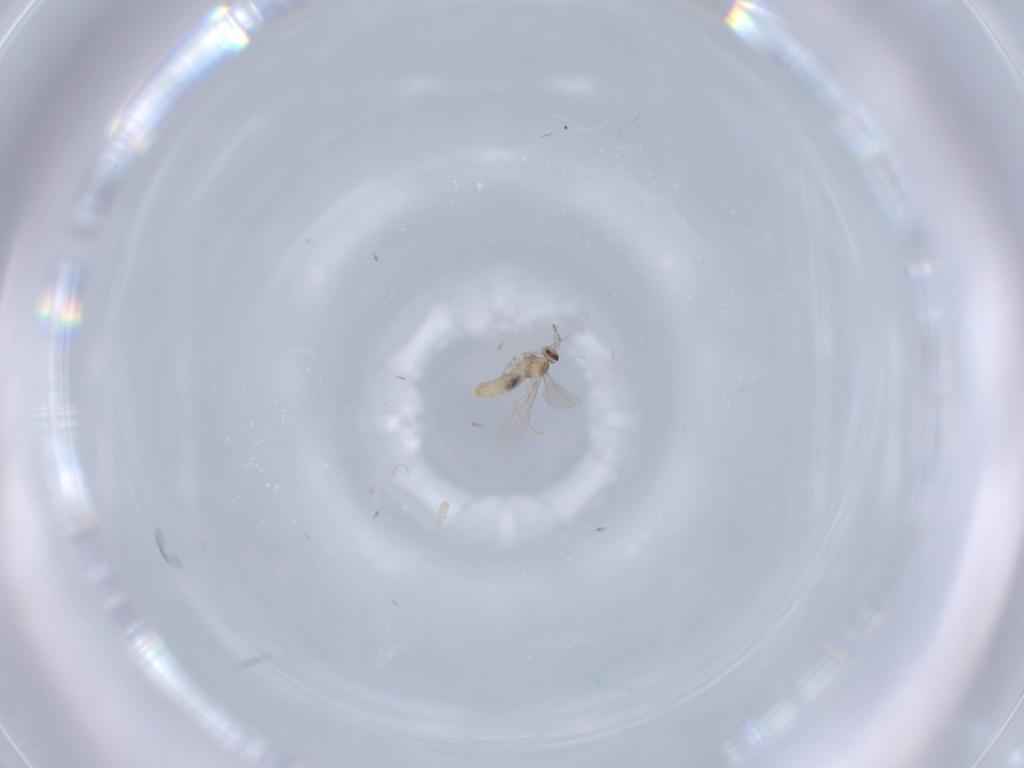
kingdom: Animalia
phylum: Arthropoda
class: Insecta
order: Diptera
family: Cecidomyiidae
